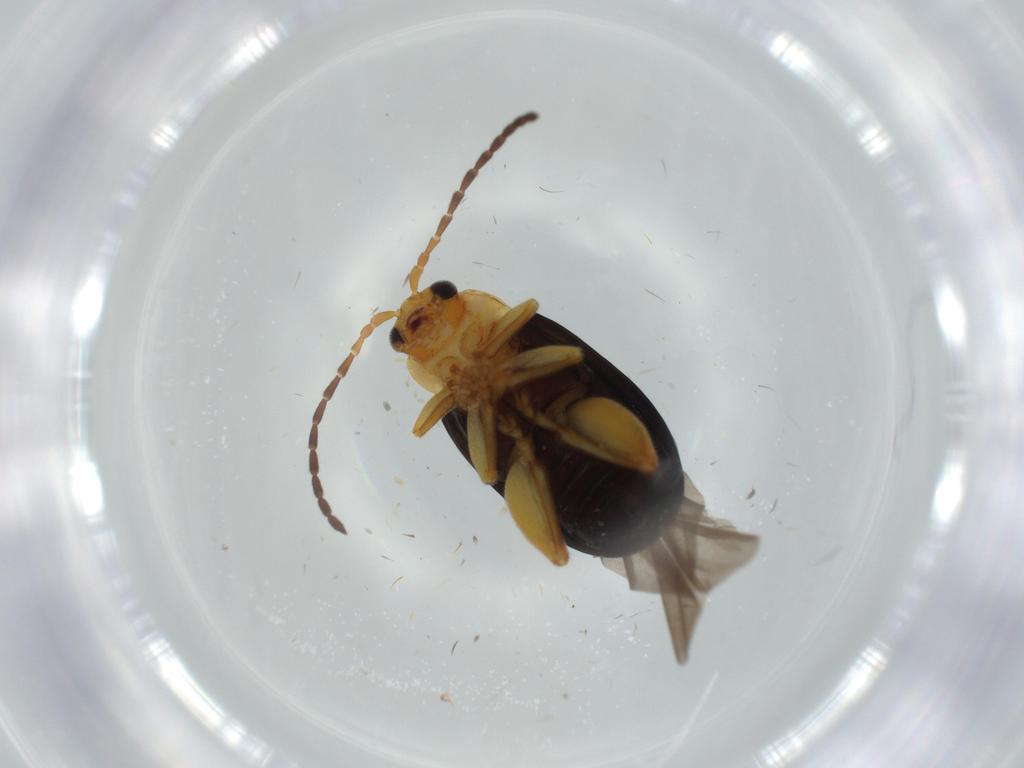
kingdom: Animalia
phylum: Arthropoda
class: Insecta
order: Coleoptera
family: Chrysomelidae
